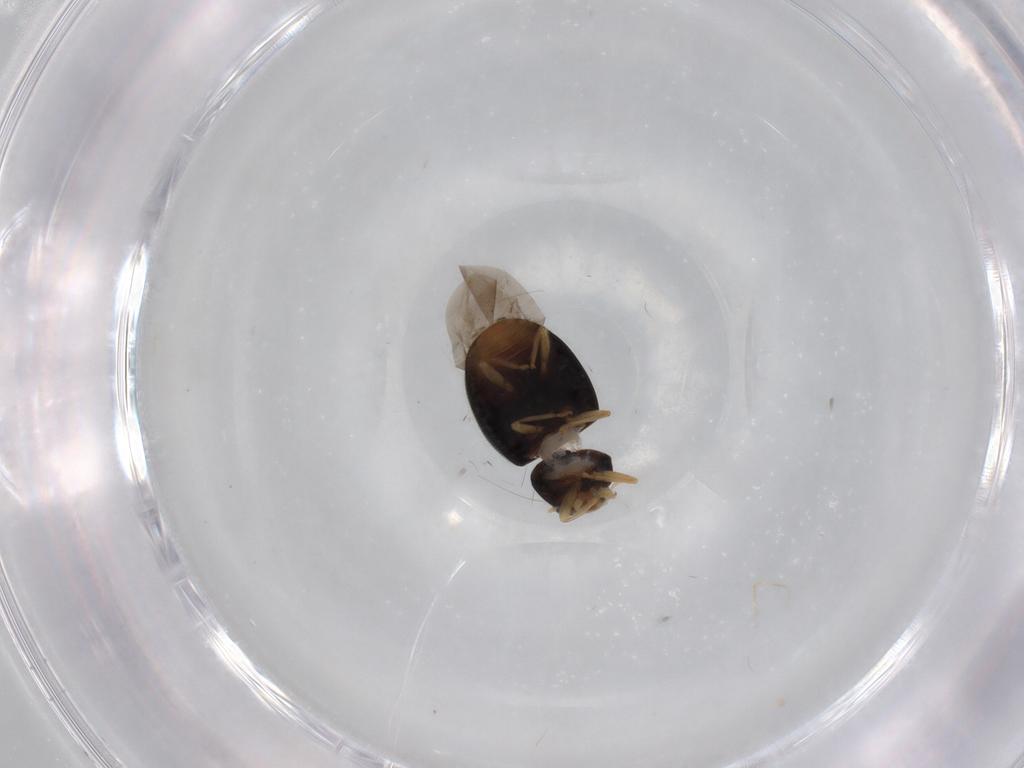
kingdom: Animalia
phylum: Arthropoda
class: Insecta
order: Coleoptera
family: Coccinellidae
